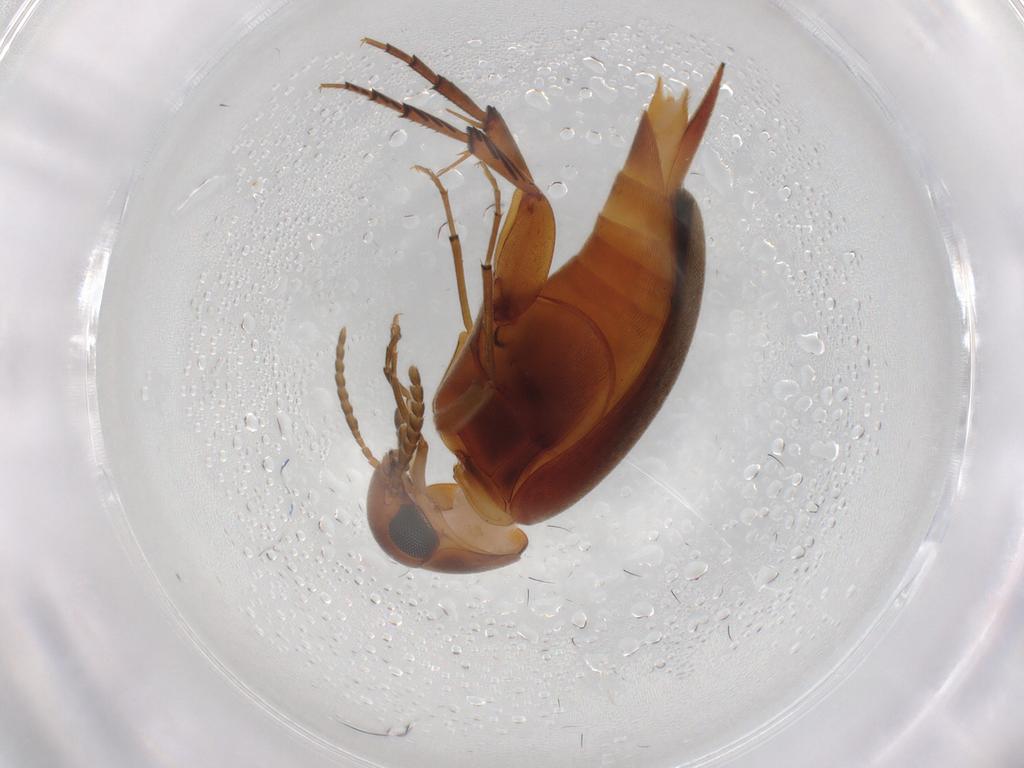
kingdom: Animalia
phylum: Arthropoda
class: Insecta
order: Coleoptera
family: Mordellidae
